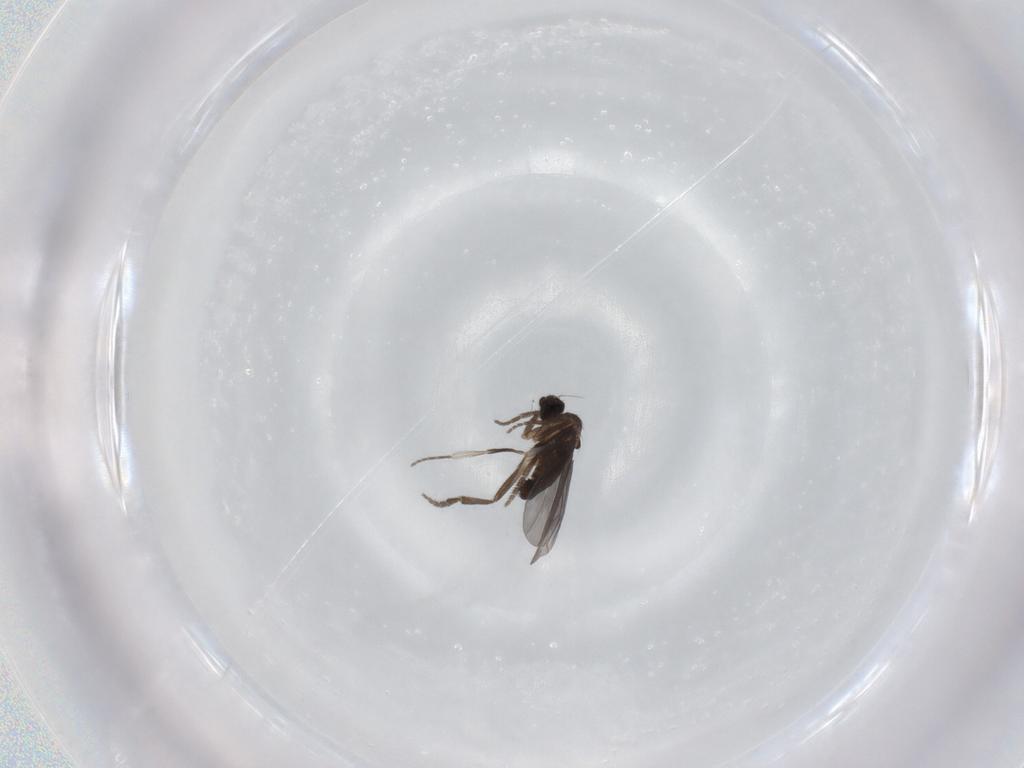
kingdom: Animalia
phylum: Arthropoda
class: Insecta
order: Diptera
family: Phoridae
